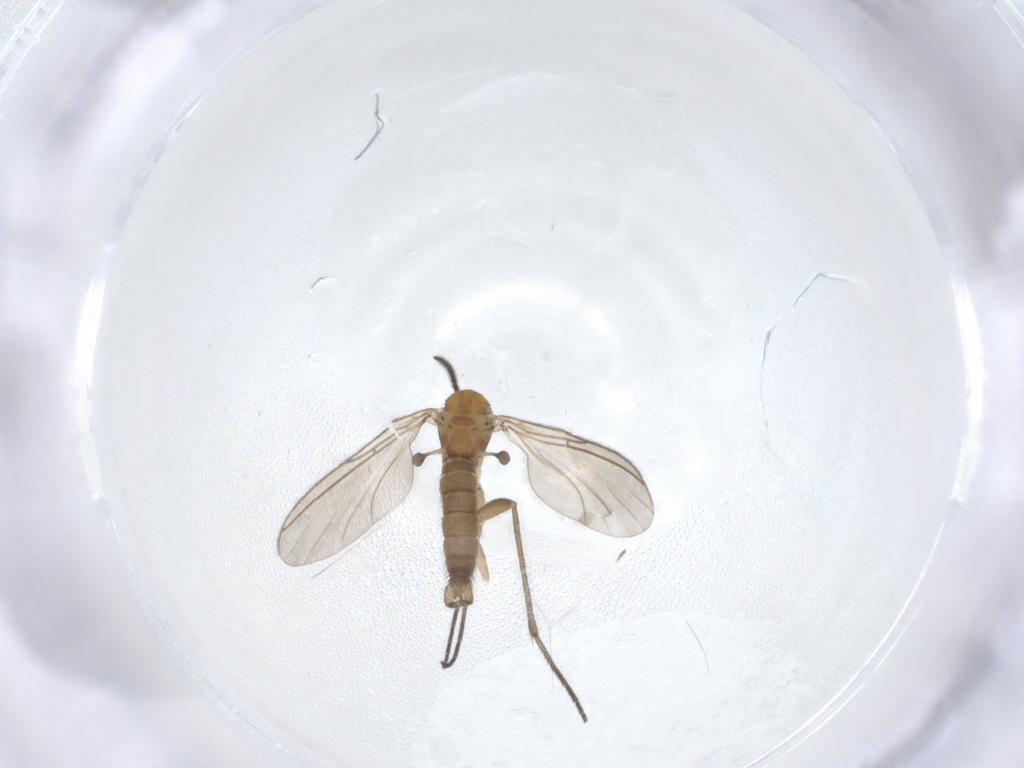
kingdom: Animalia
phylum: Arthropoda
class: Insecta
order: Diptera
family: Sciaridae
